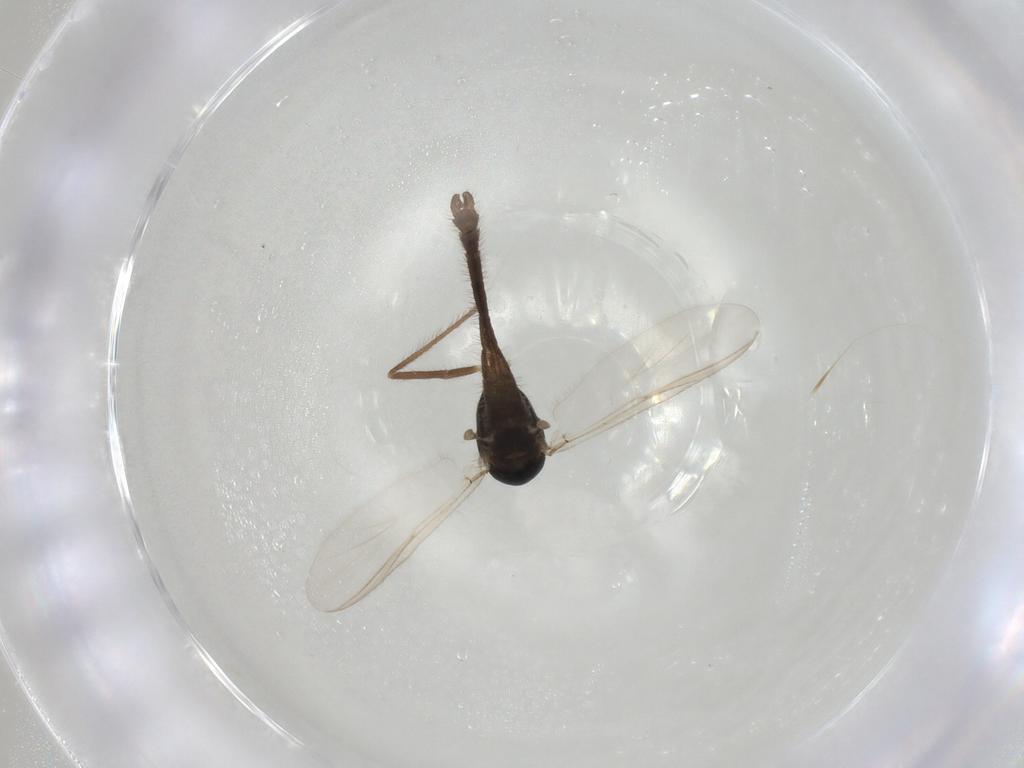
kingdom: Animalia
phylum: Arthropoda
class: Insecta
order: Diptera
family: Chironomidae
